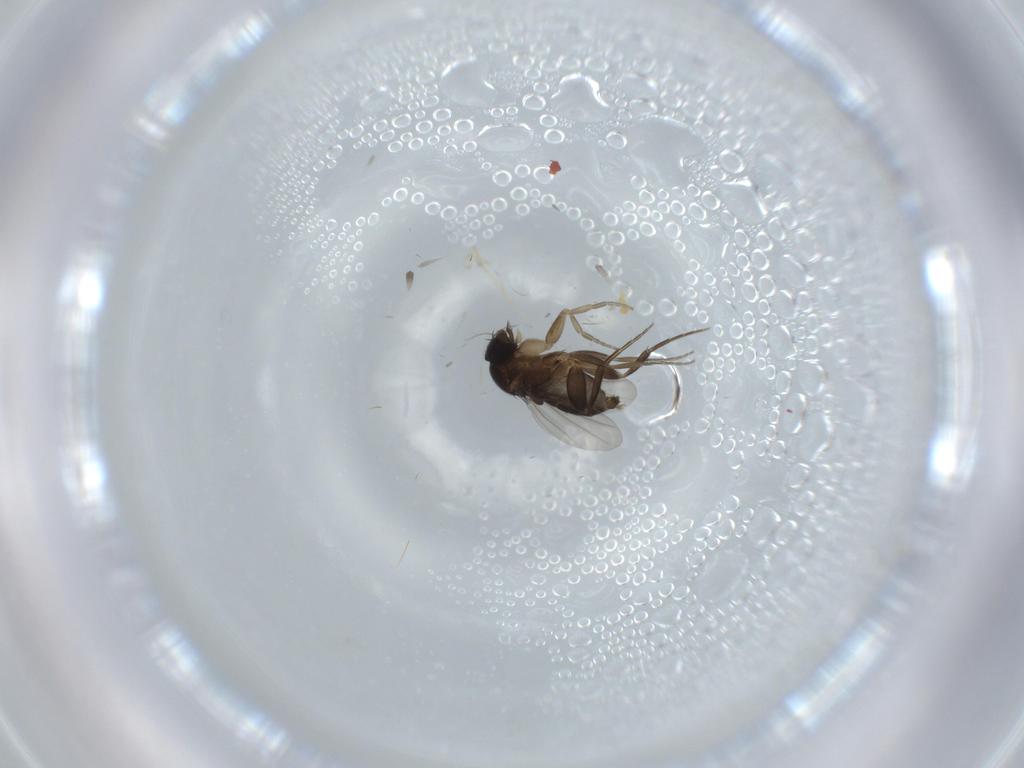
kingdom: Animalia
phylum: Arthropoda
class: Insecta
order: Diptera
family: Phoridae
